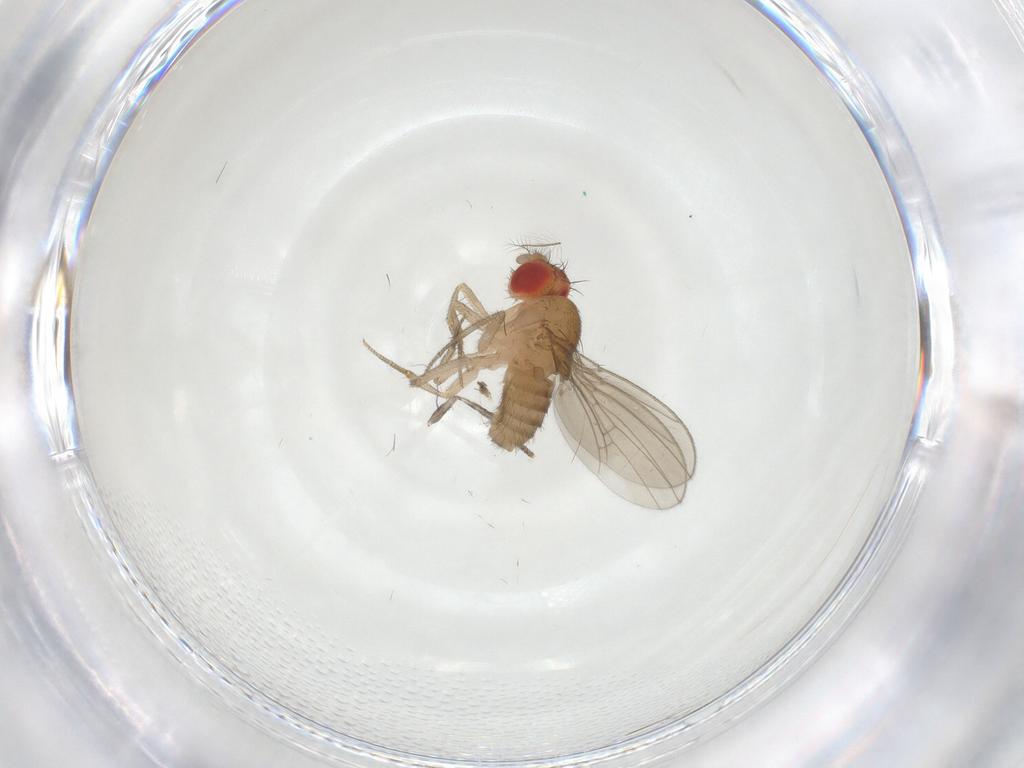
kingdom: Animalia
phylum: Arthropoda
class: Insecta
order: Diptera
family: Drosophilidae
